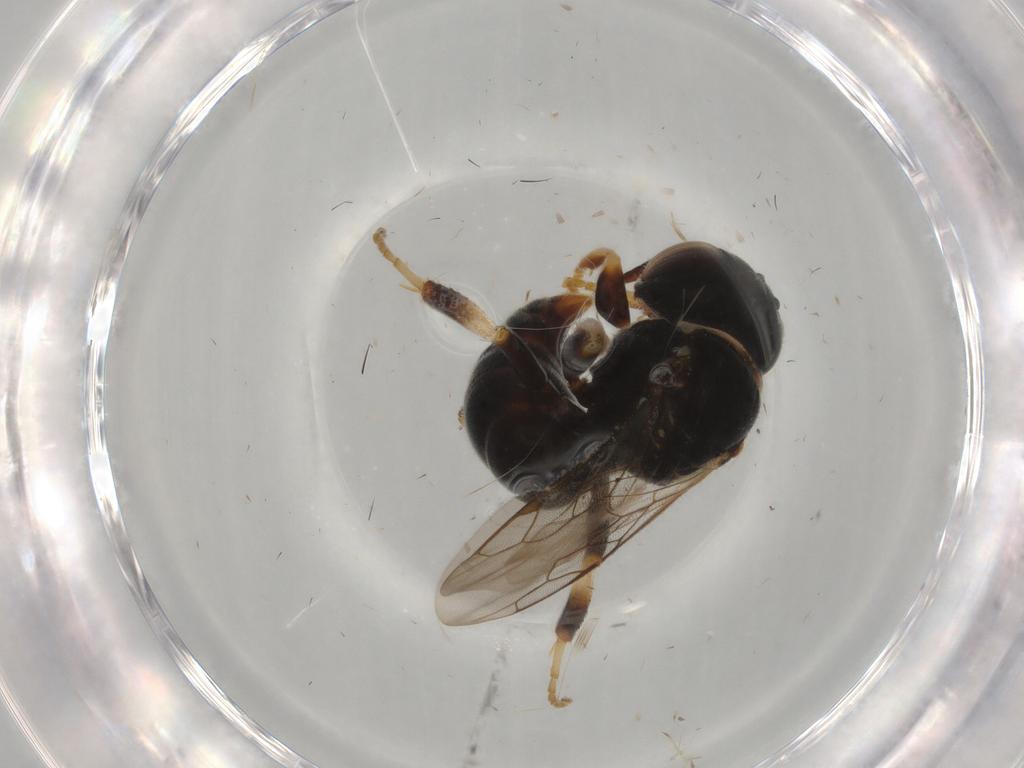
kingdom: Animalia
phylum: Arthropoda
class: Insecta
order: Hymenoptera
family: Crabronidae
